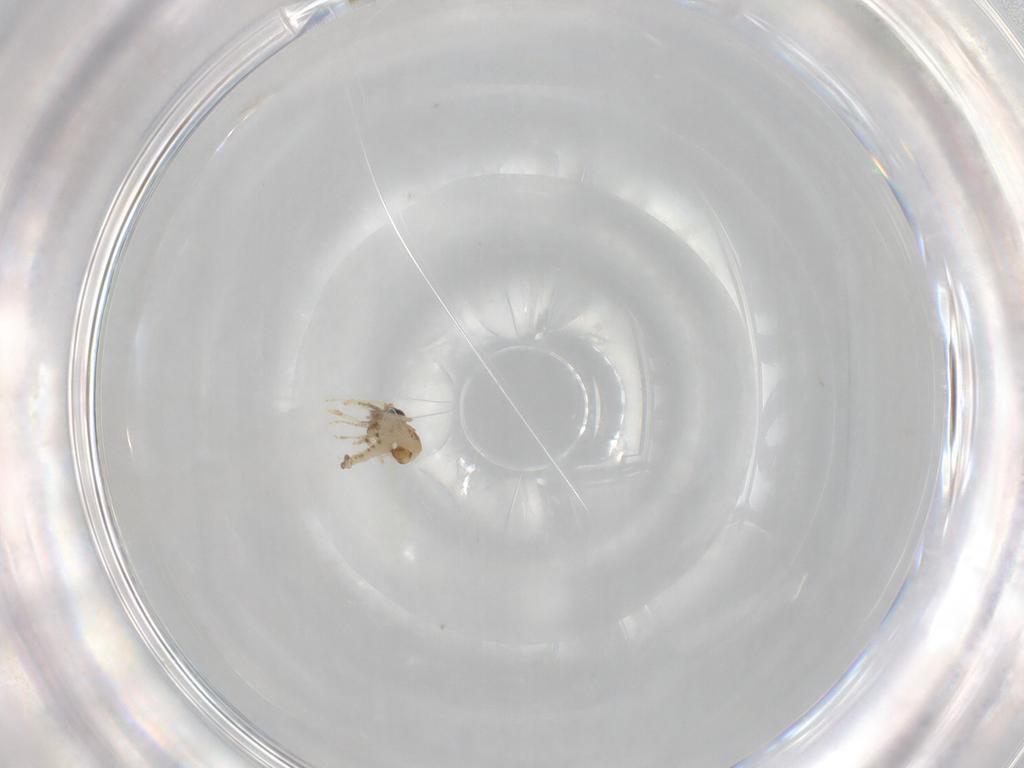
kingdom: Animalia
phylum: Arthropoda
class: Insecta
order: Diptera
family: Ceratopogonidae
